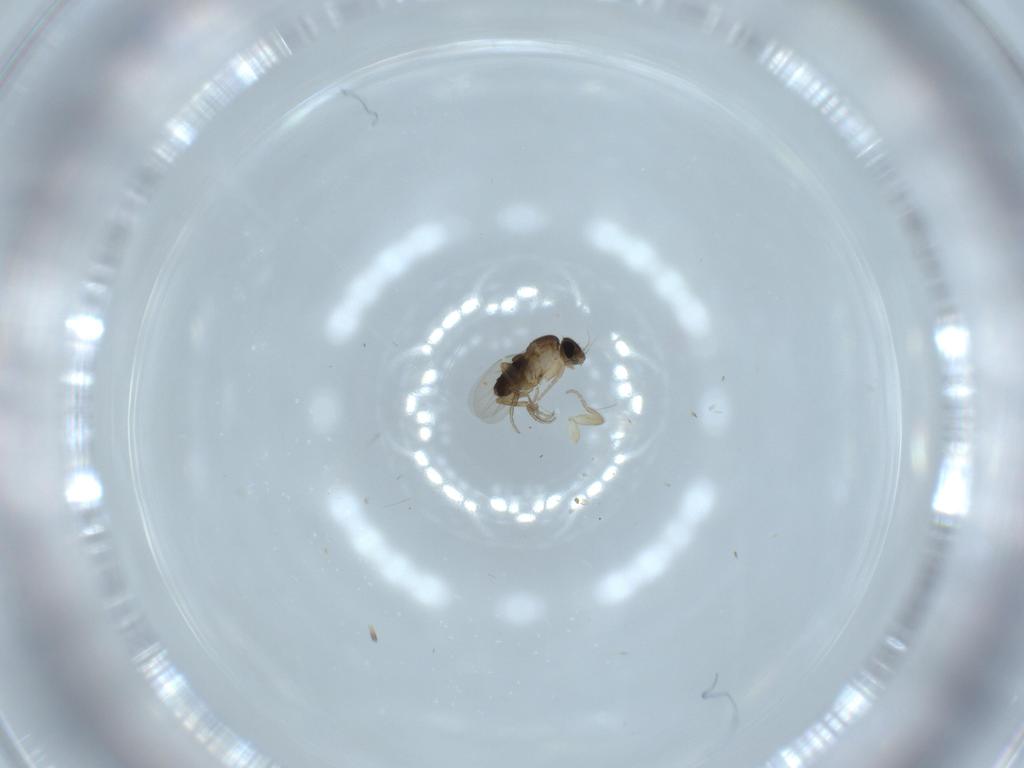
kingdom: Animalia
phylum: Arthropoda
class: Insecta
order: Diptera
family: Phoridae
